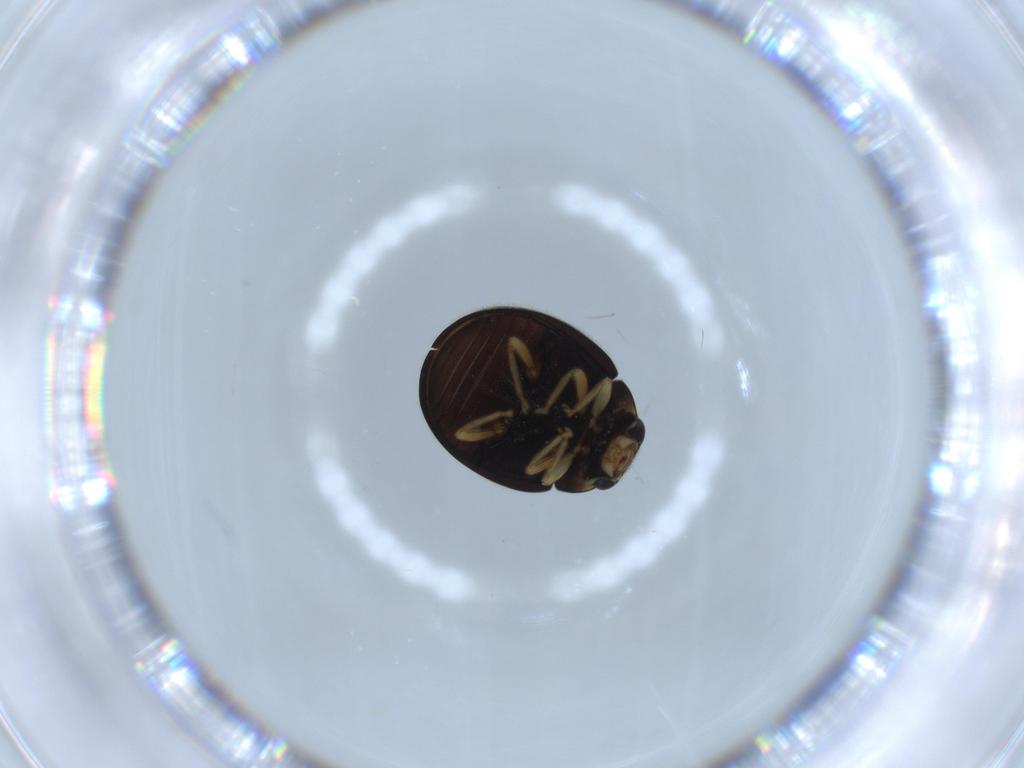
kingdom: Animalia
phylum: Arthropoda
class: Insecta
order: Coleoptera
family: Coccinellidae
